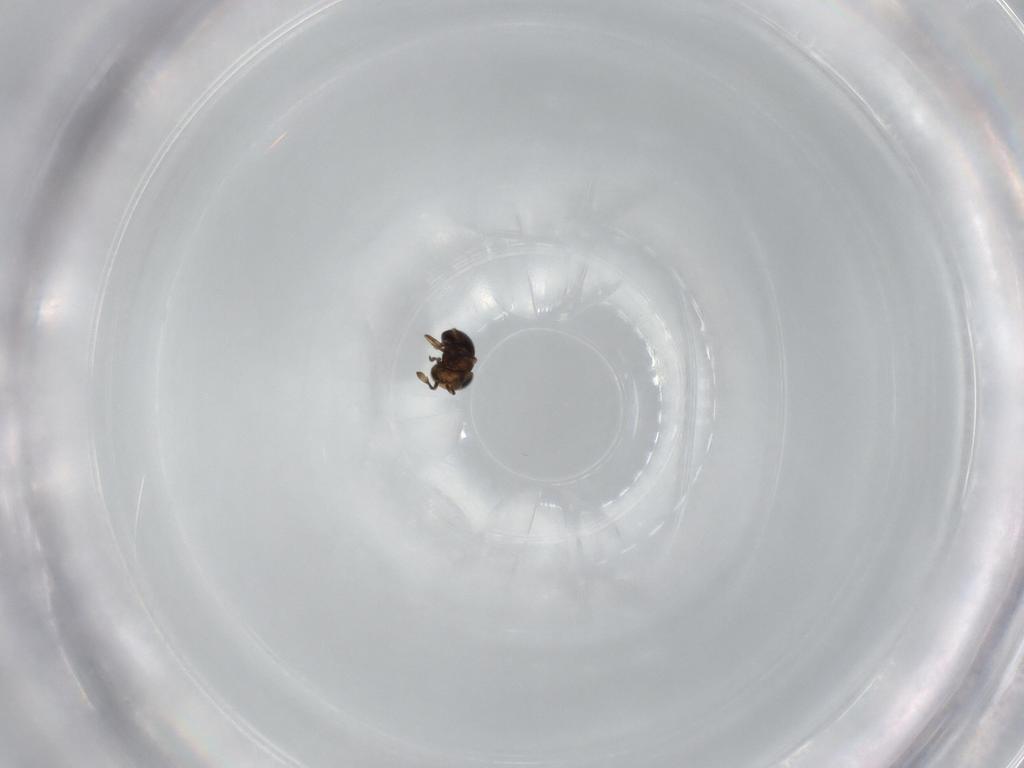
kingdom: Animalia
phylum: Arthropoda
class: Insecta
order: Hymenoptera
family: Scelionidae
